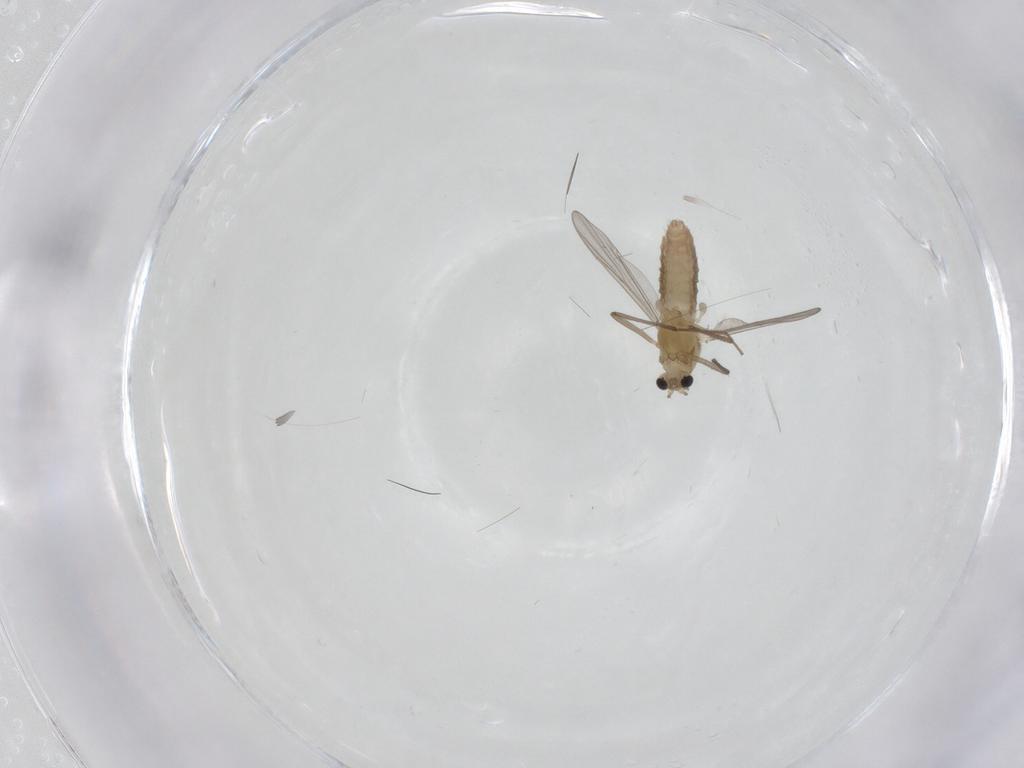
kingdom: Animalia
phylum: Arthropoda
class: Insecta
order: Diptera
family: Chironomidae
